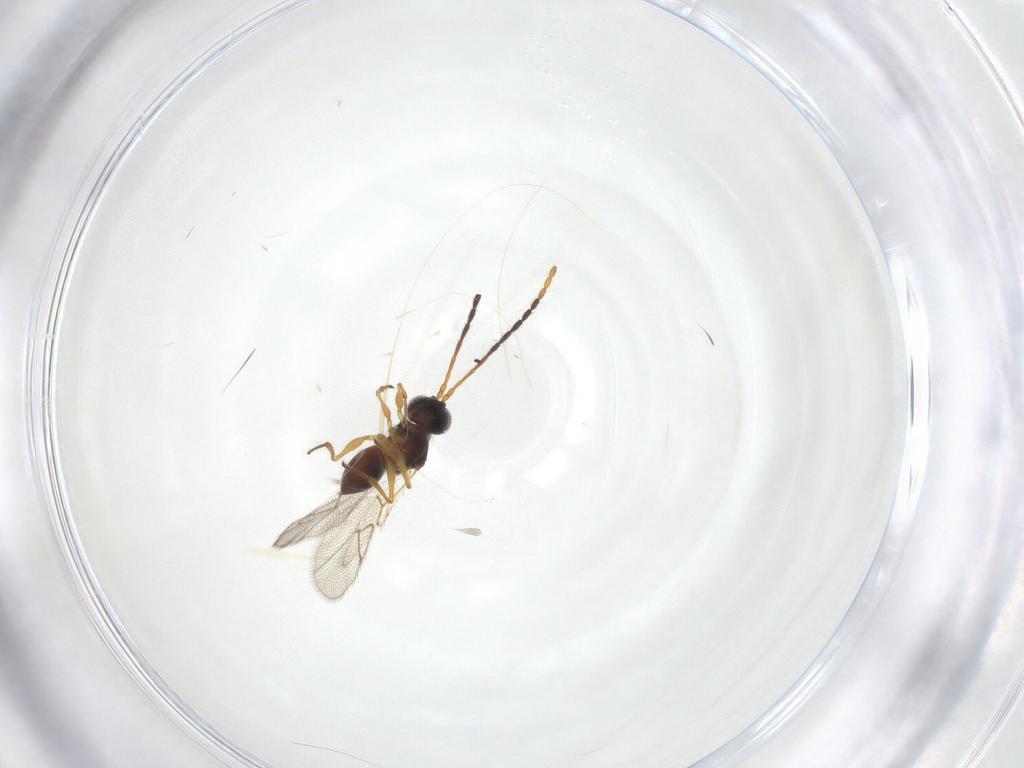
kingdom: Animalia
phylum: Arthropoda
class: Insecta
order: Hymenoptera
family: Figitidae
